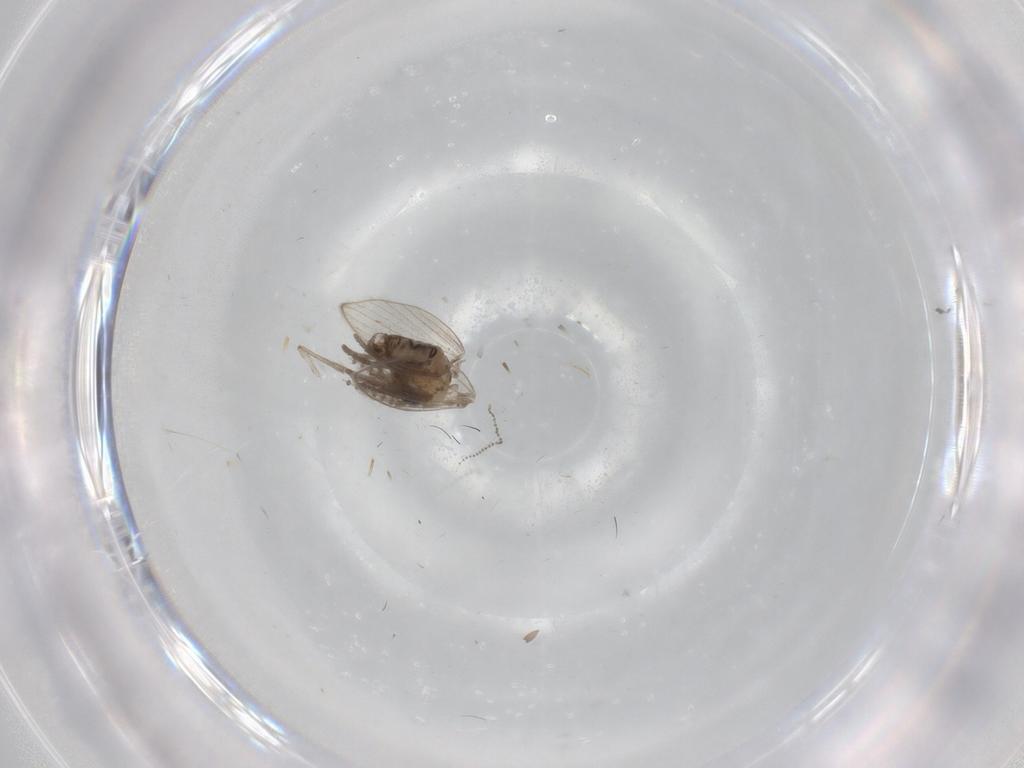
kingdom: Animalia
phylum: Arthropoda
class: Insecta
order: Diptera
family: Psychodidae
